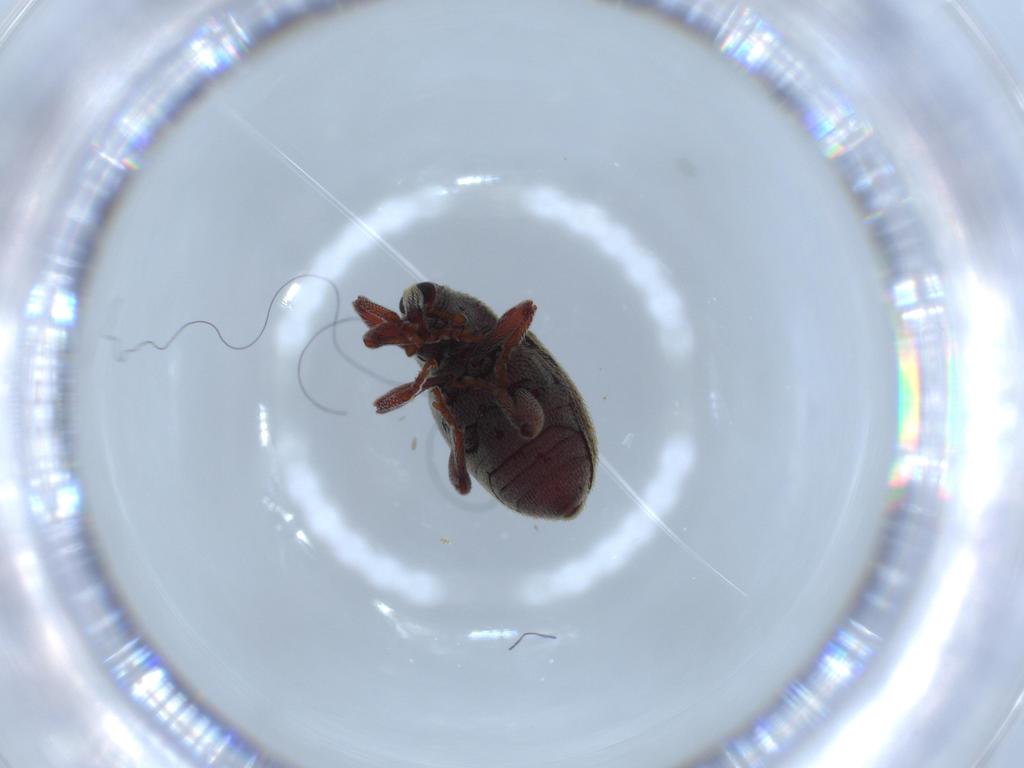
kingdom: Animalia
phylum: Arthropoda
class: Insecta
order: Coleoptera
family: Curculionidae
